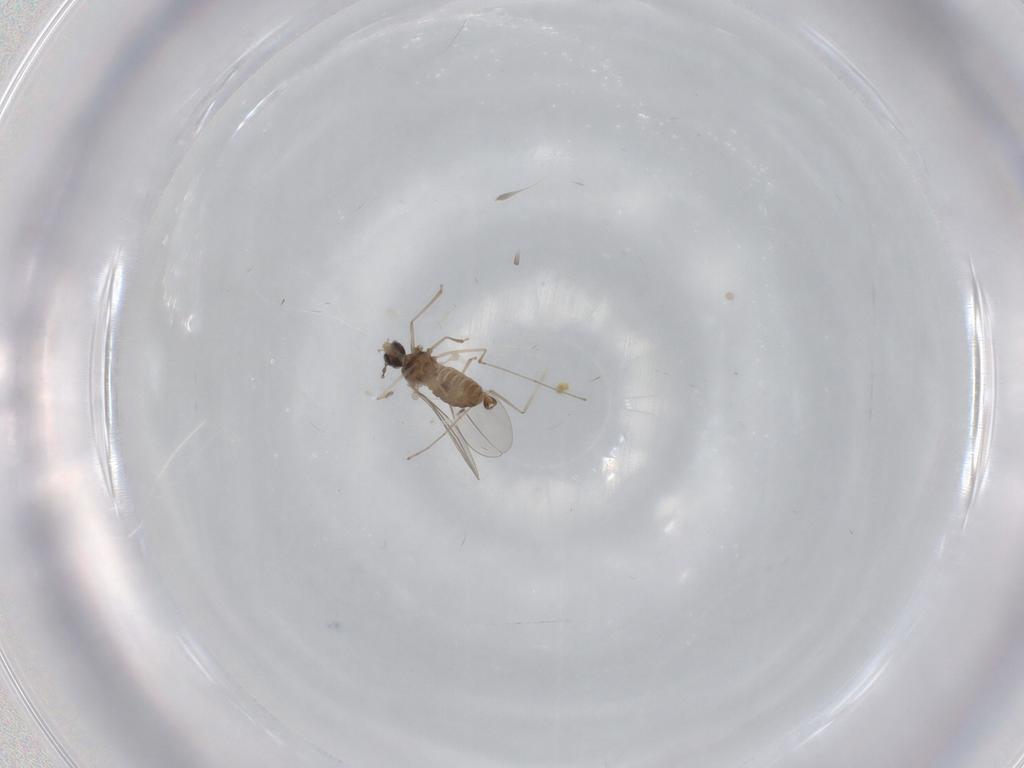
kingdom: Animalia
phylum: Arthropoda
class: Insecta
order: Diptera
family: Cecidomyiidae
